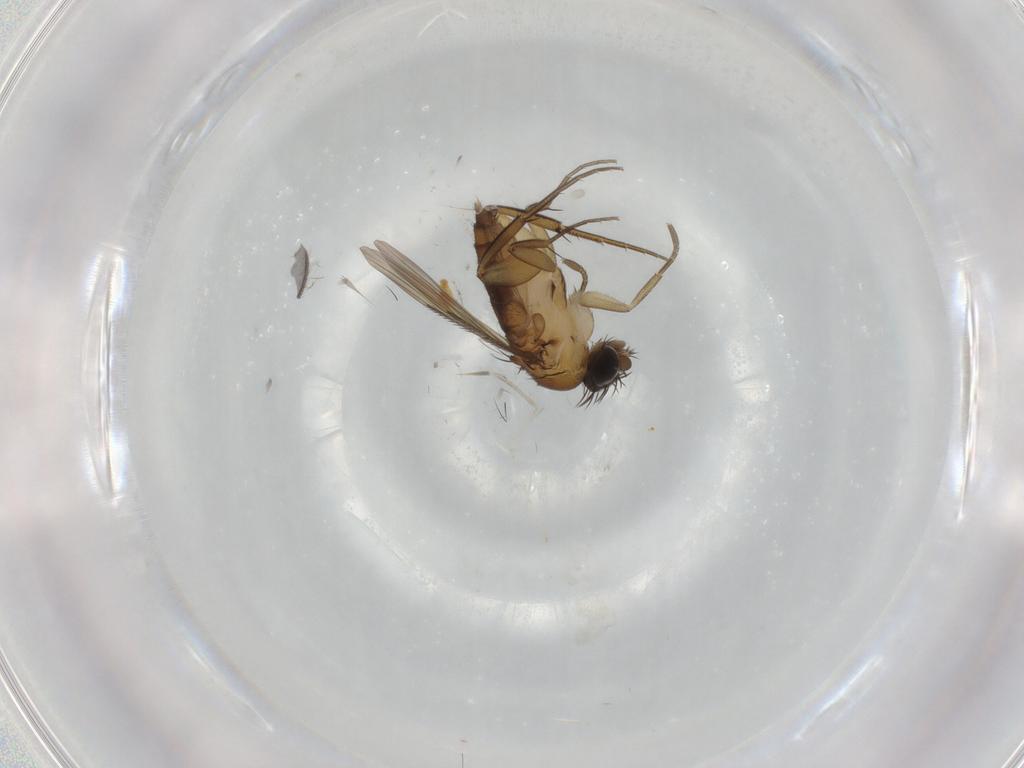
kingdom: Animalia
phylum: Arthropoda
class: Insecta
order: Diptera
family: Phoridae
